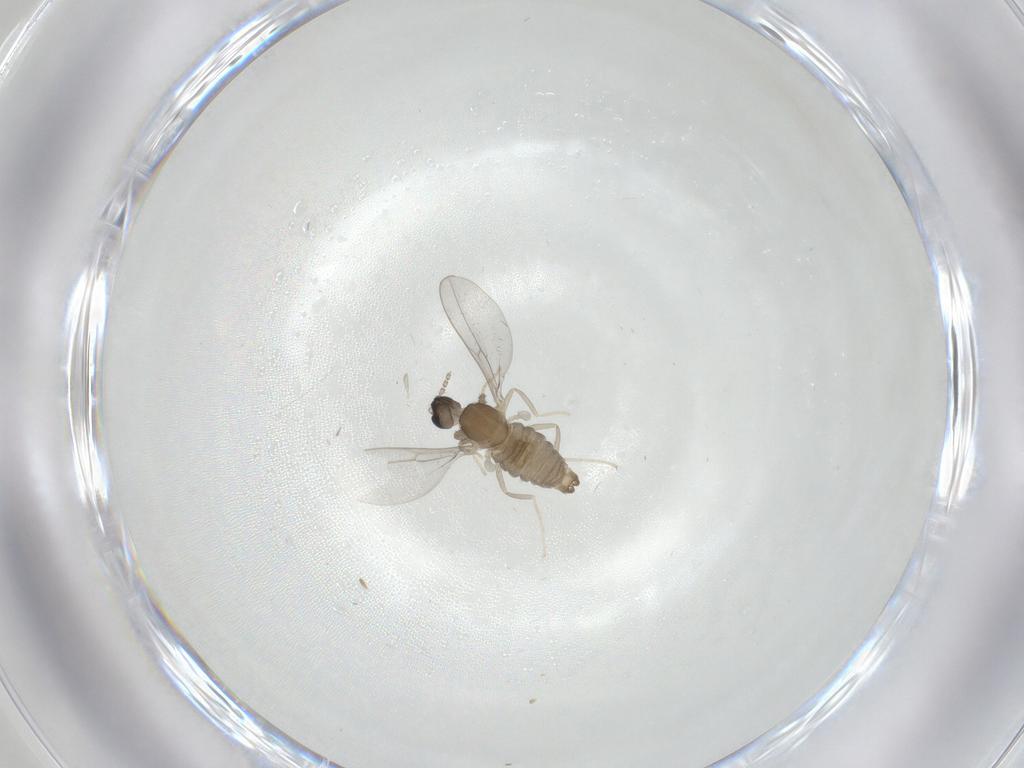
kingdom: Animalia
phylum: Arthropoda
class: Insecta
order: Diptera
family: Cecidomyiidae
